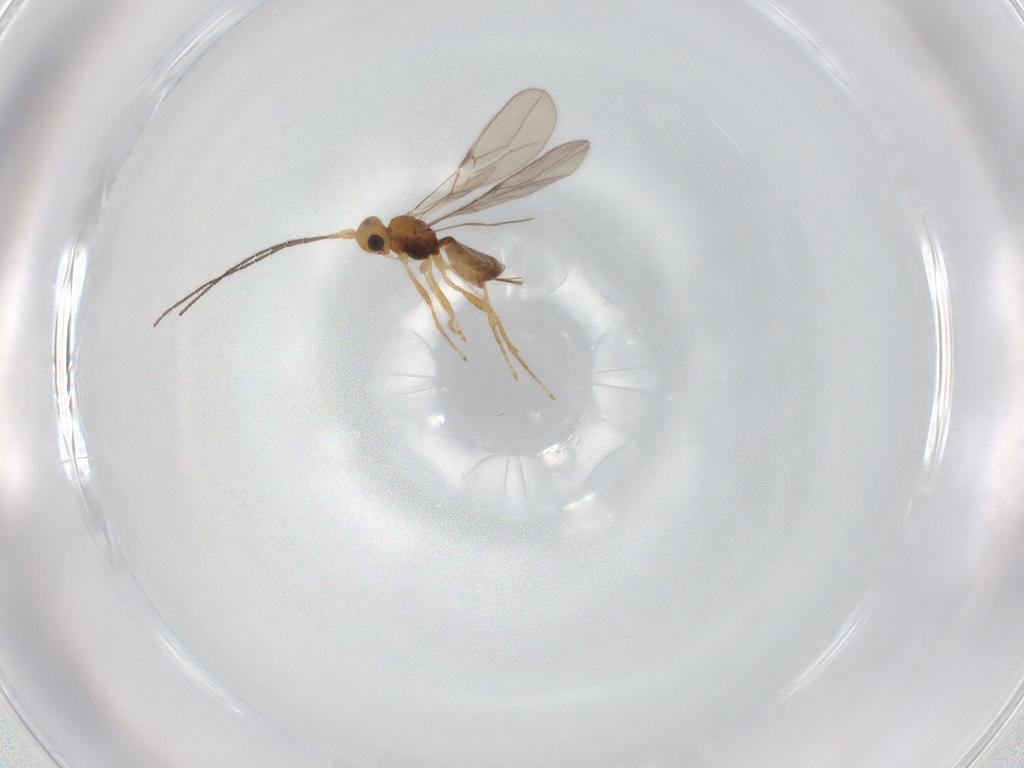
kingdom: Animalia
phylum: Arthropoda
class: Insecta
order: Hymenoptera
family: Braconidae
